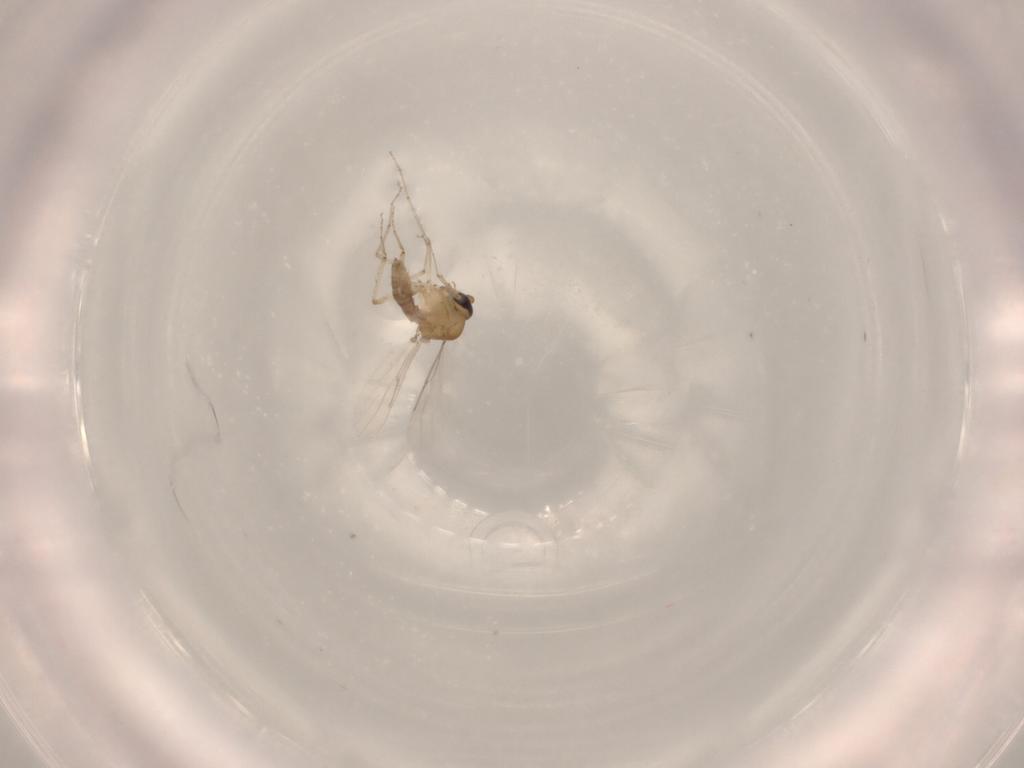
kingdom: Animalia
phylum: Arthropoda
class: Insecta
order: Diptera
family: Ceratopogonidae
